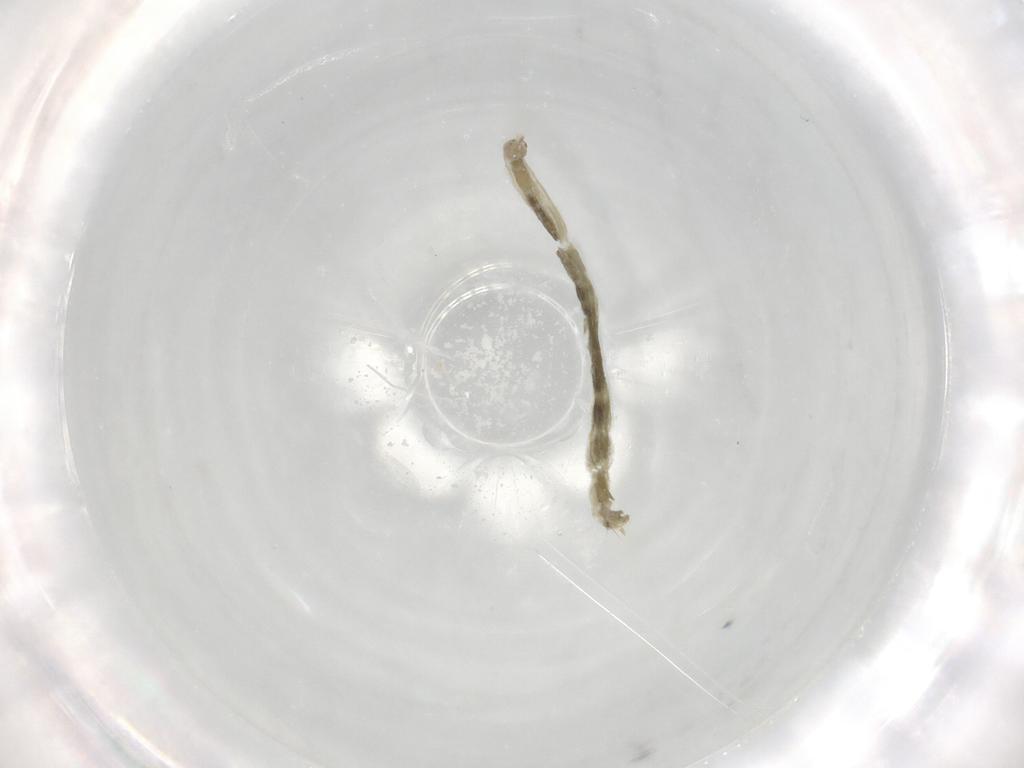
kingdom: Animalia
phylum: Arthropoda
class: Insecta
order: Diptera
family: Chironomidae
